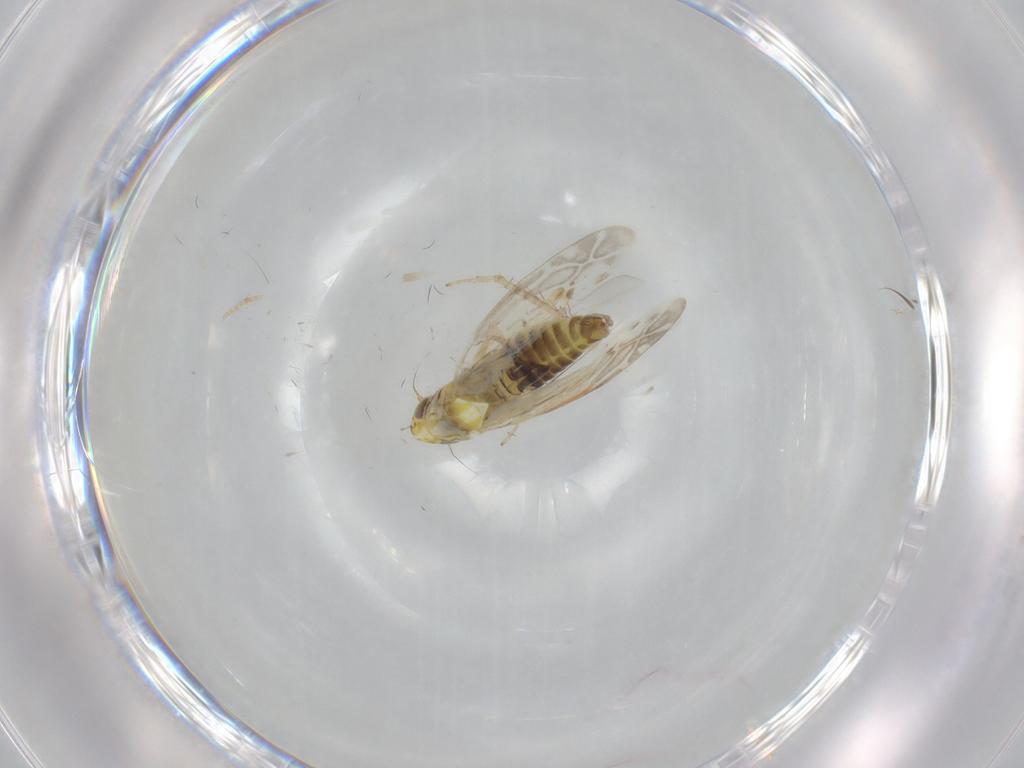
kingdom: Animalia
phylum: Arthropoda
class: Insecta
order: Hemiptera
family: Cicadellidae
